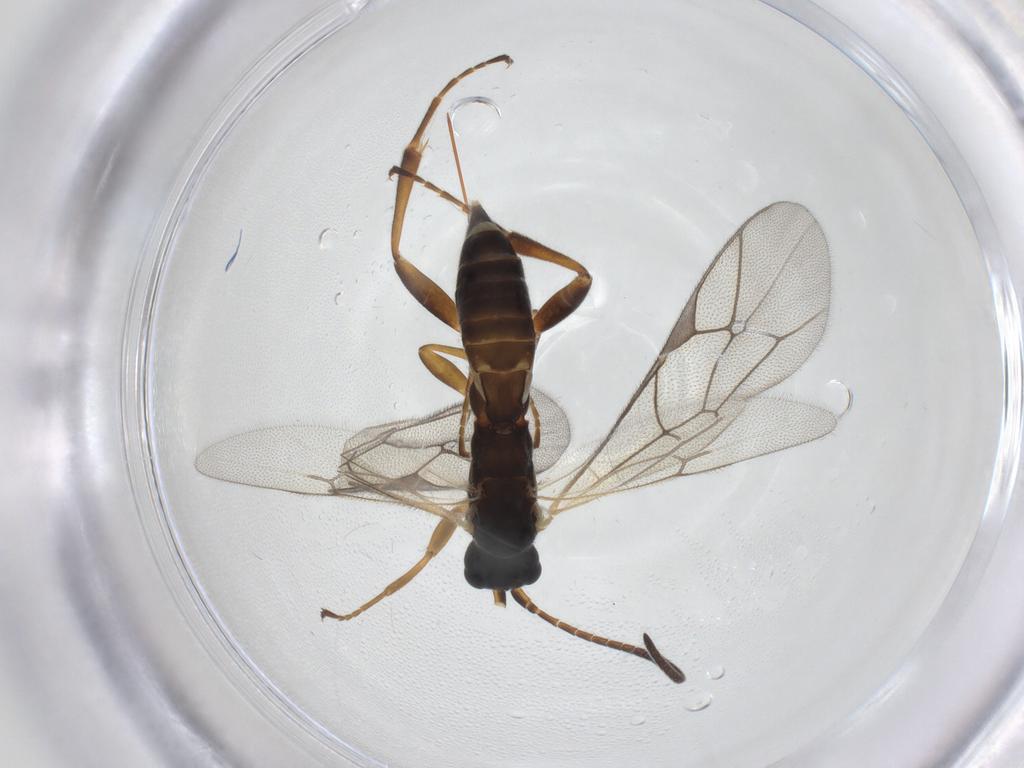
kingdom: Animalia
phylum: Arthropoda
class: Insecta
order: Hymenoptera
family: Ichneumonidae
